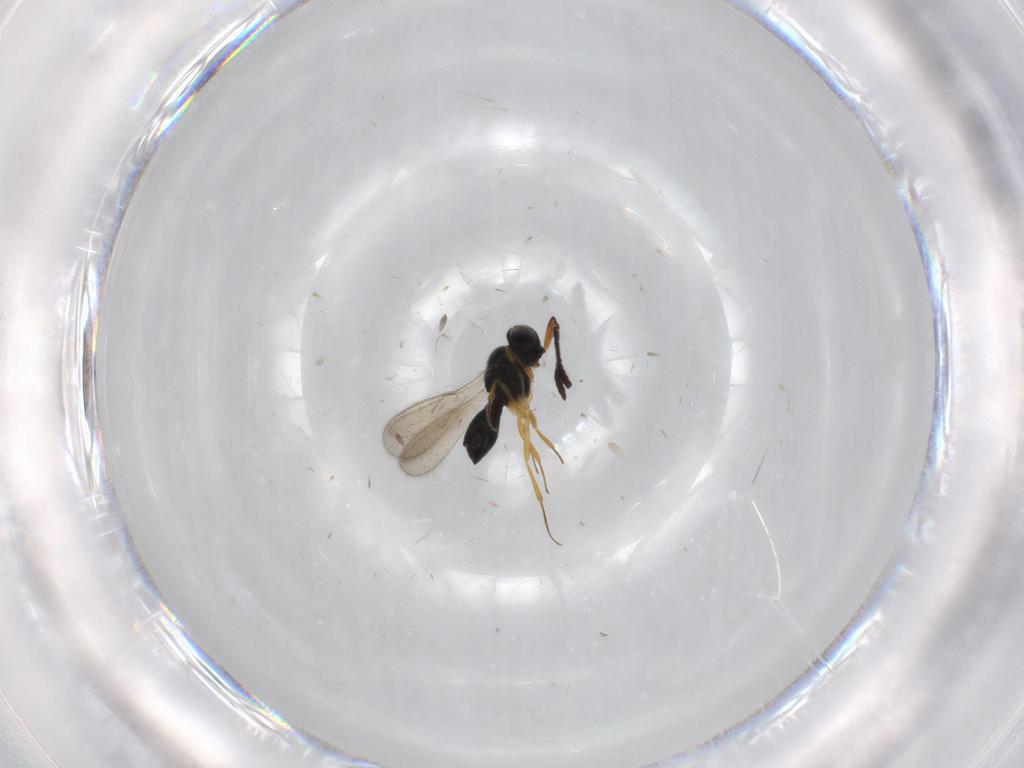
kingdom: Animalia
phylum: Arthropoda
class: Insecta
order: Hymenoptera
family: Scelionidae
